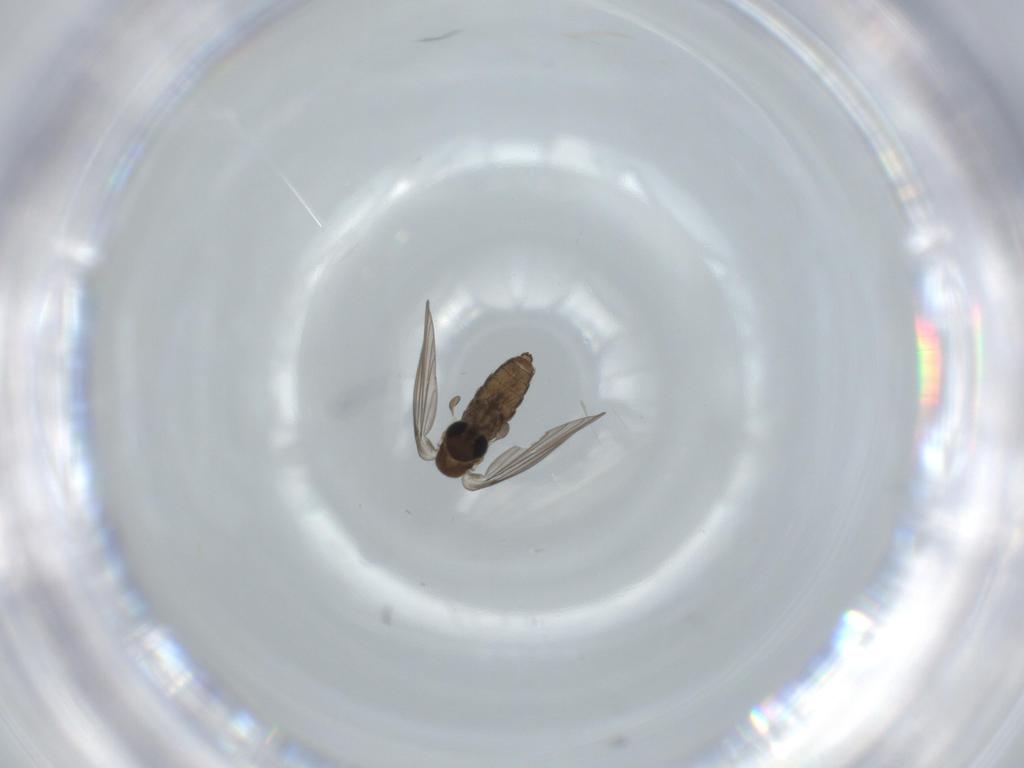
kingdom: Animalia
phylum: Arthropoda
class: Insecta
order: Diptera
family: Psychodidae
